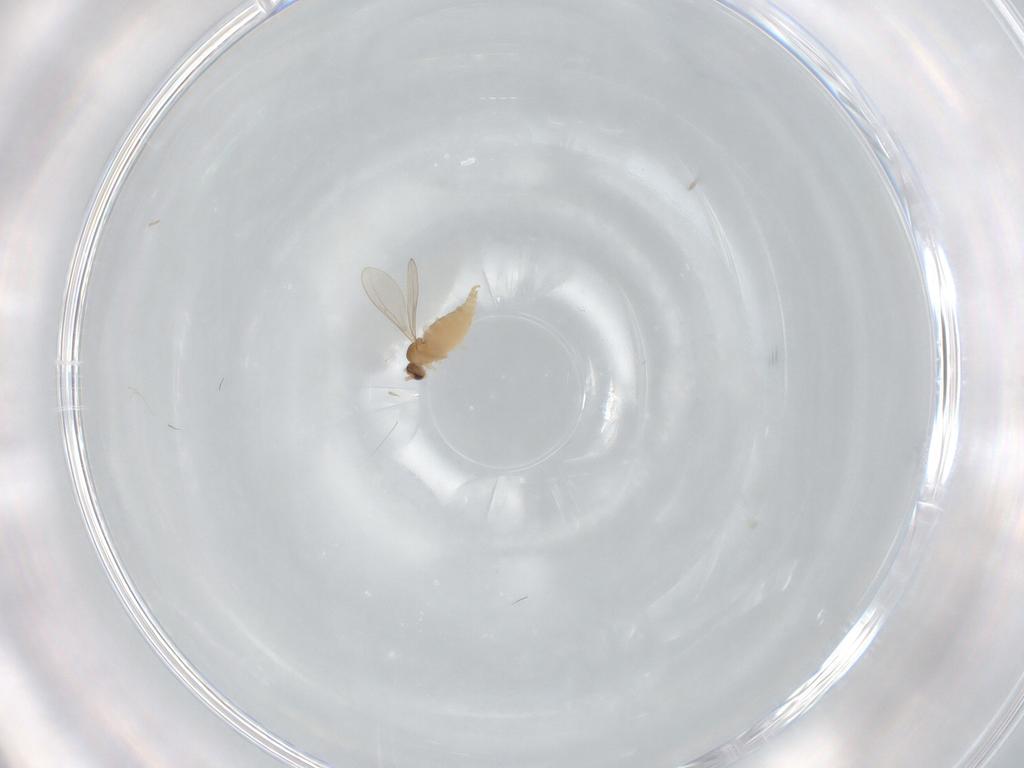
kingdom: Animalia
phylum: Arthropoda
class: Insecta
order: Diptera
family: Cecidomyiidae
